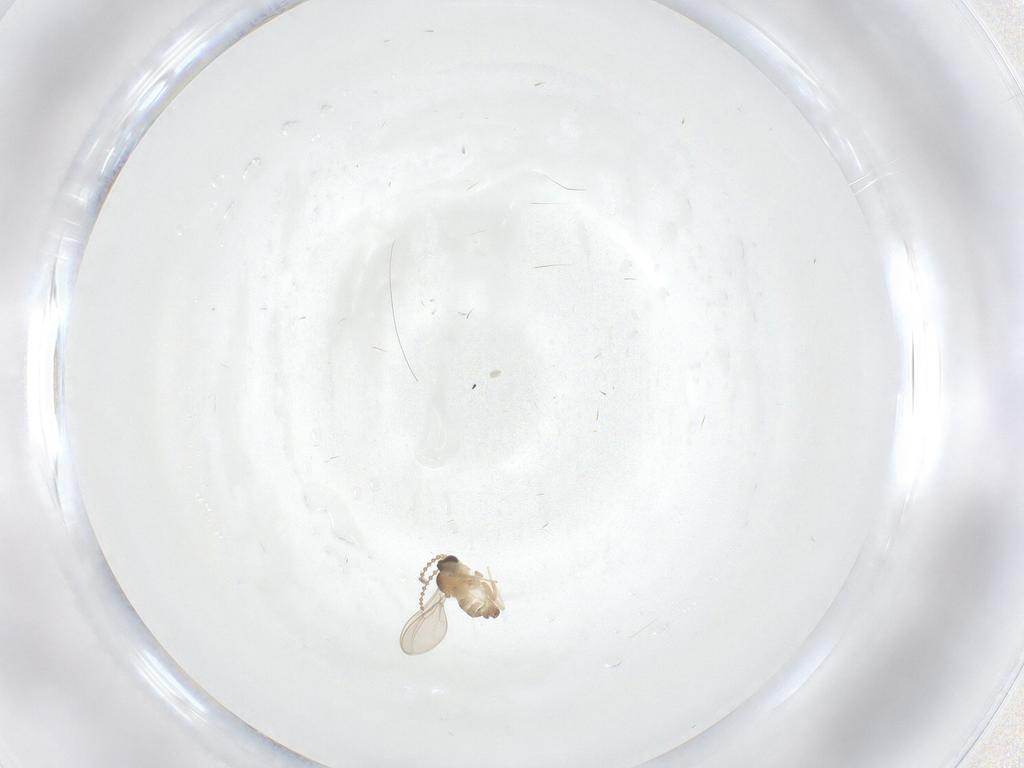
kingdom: Animalia
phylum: Arthropoda
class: Insecta
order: Diptera
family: Cecidomyiidae
